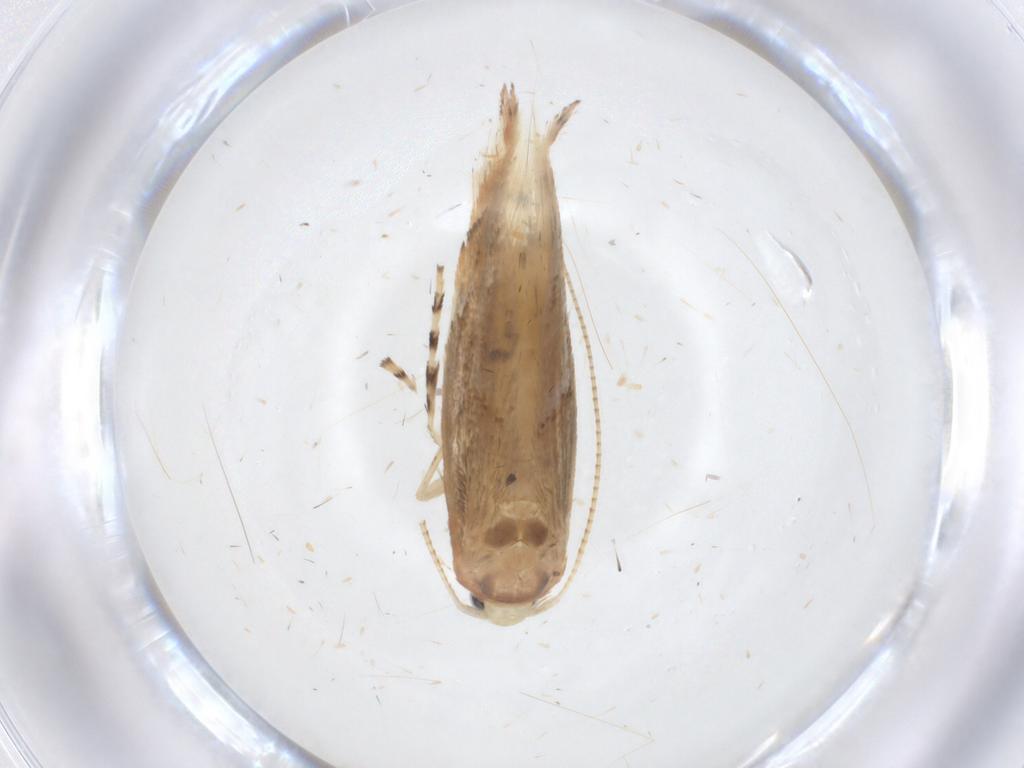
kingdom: Animalia
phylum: Arthropoda
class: Insecta
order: Lepidoptera
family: Gracillariidae
